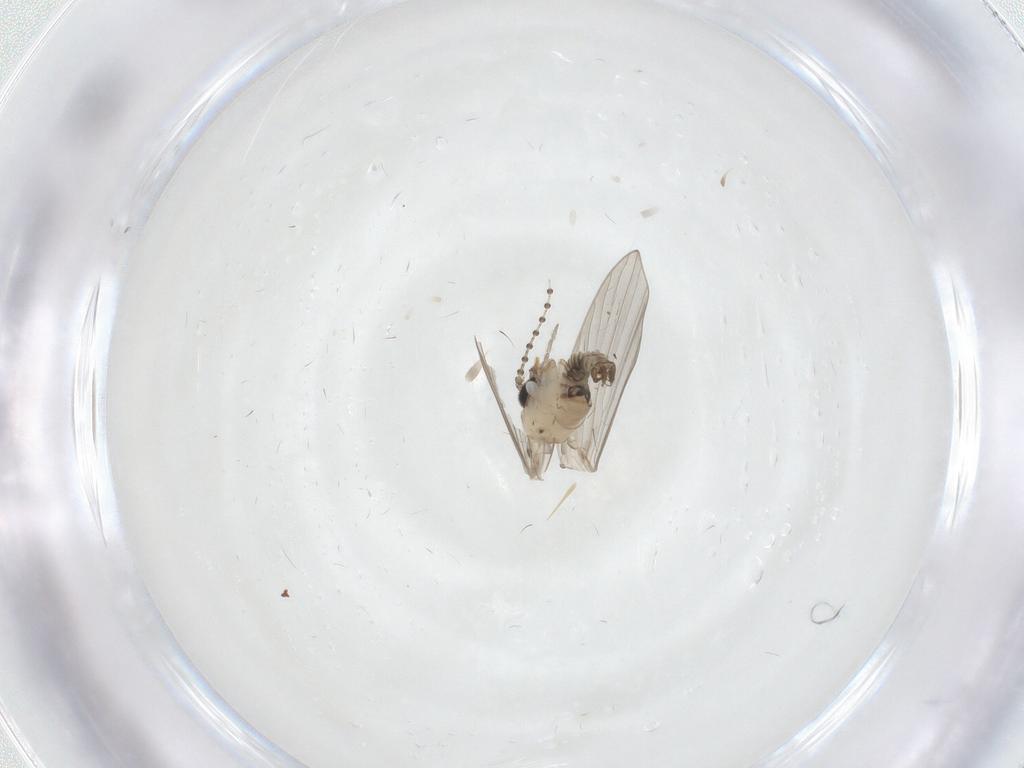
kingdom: Animalia
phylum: Arthropoda
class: Insecta
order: Diptera
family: Psychodidae
